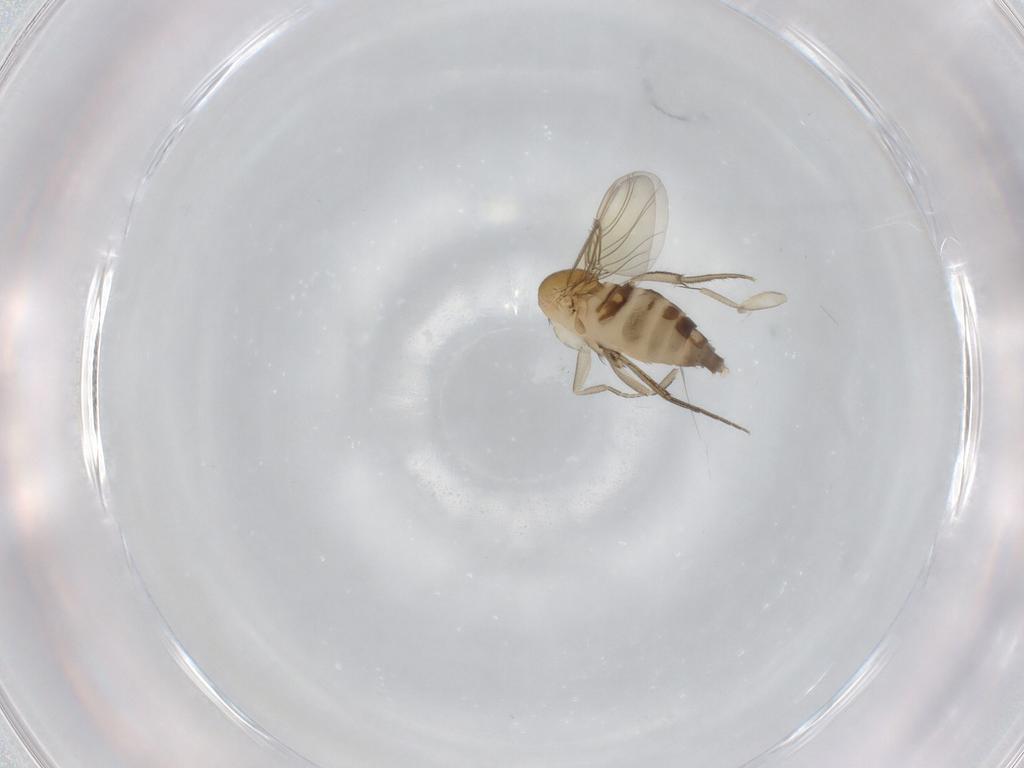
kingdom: Animalia
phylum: Arthropoda
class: Insecta
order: Diptera
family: Phoridae
